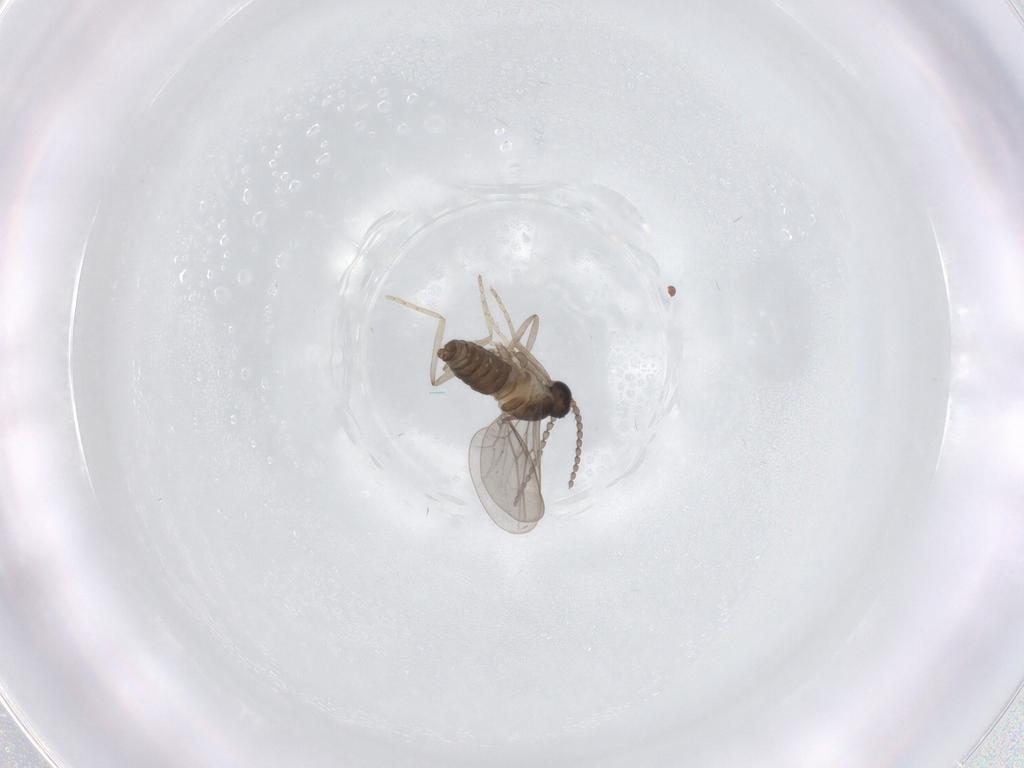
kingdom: Animalia
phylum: Arthropoda
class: Insecta
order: Diptera
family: Cecidomyiidae
